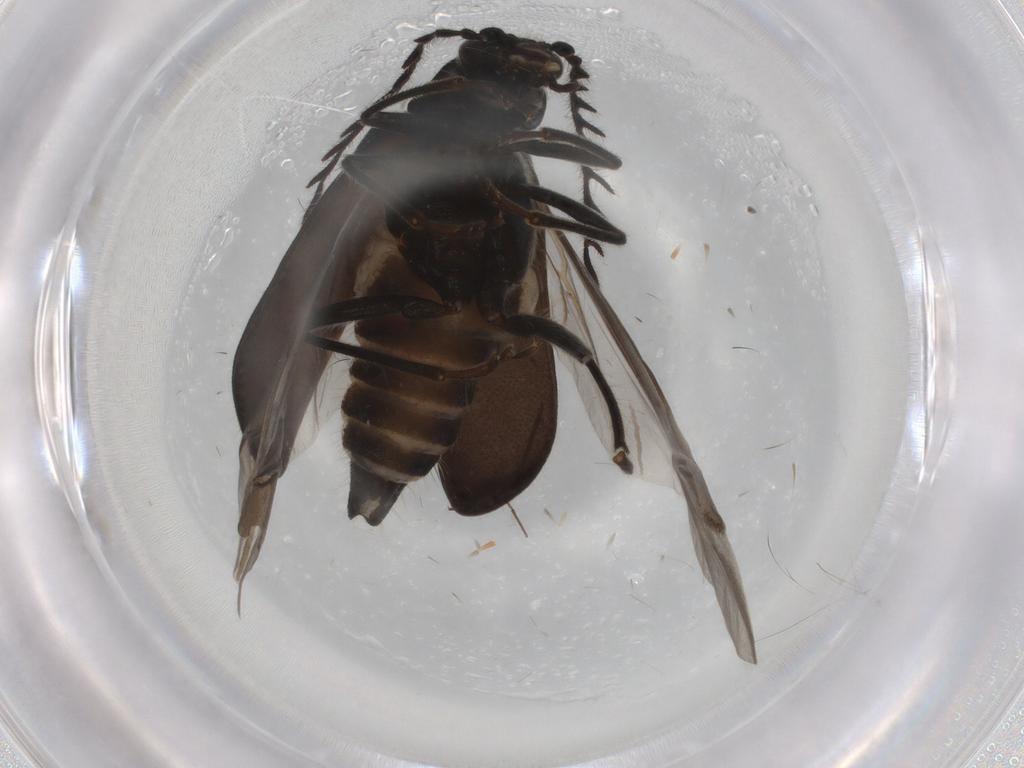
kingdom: Animalia
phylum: Arthropoda
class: Insecta
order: Coleoptera
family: Melyridae
